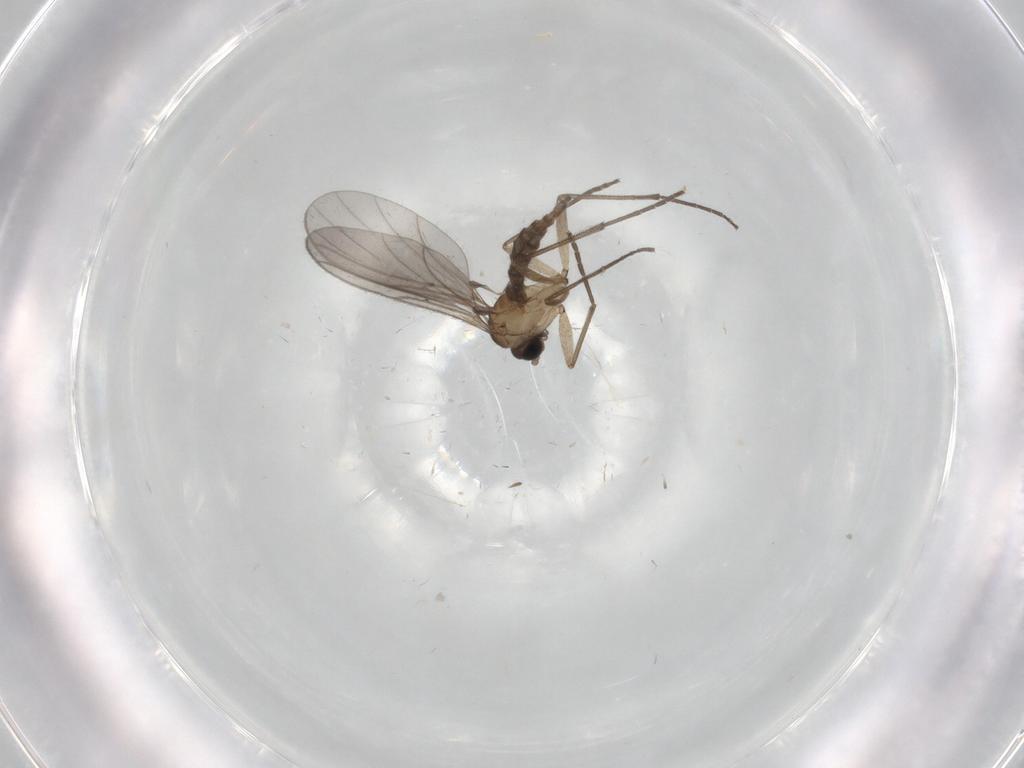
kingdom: Animalia
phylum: Arthropoda
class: Insecta
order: Diptera
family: Sciaridae
